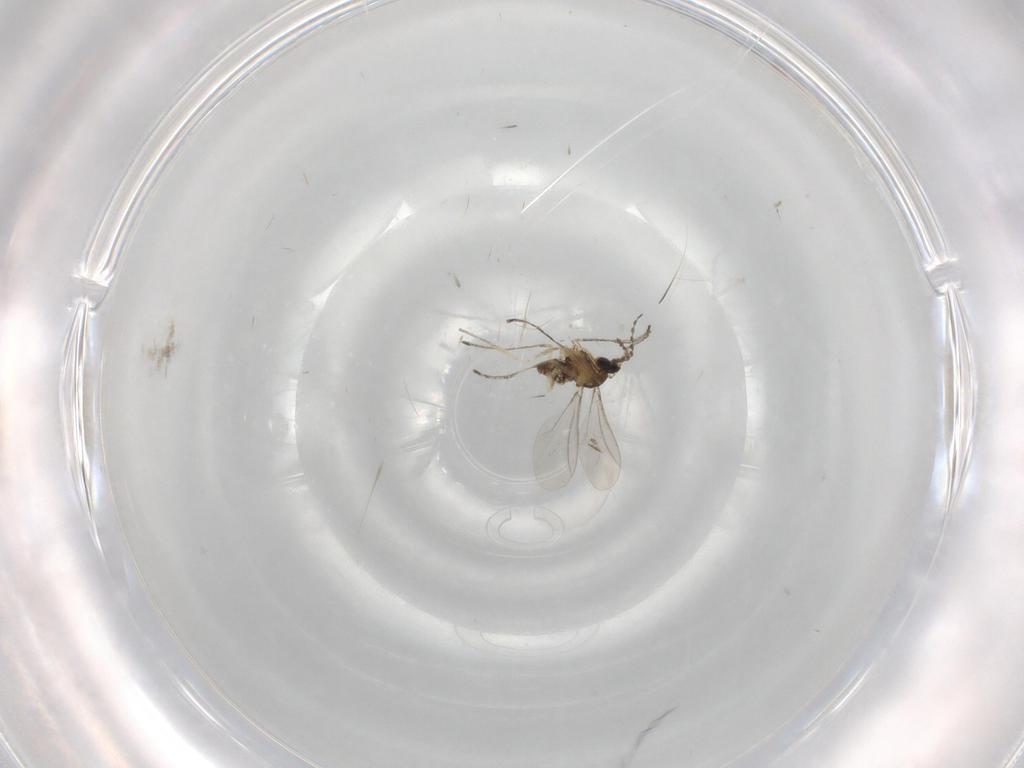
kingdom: Animalia
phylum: Arthropoda
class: Insecta
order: Diptera
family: Cecidomyiidae
